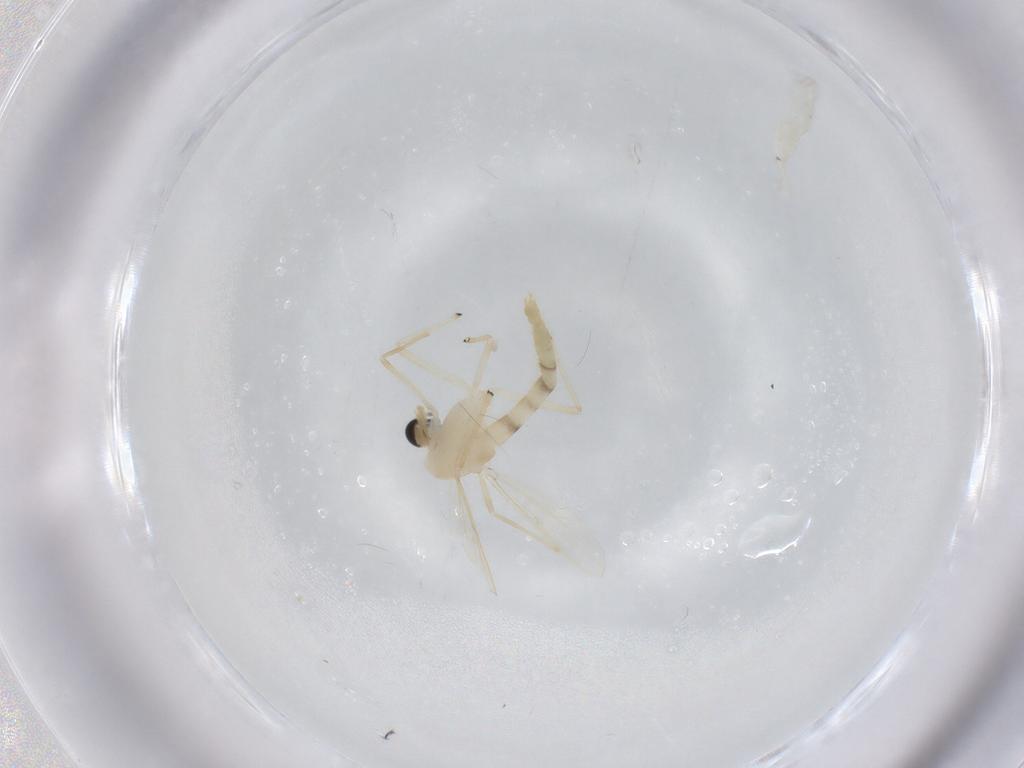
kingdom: Animalia
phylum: Arthropoda
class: Insecta
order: Diptera
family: Chironomidae
